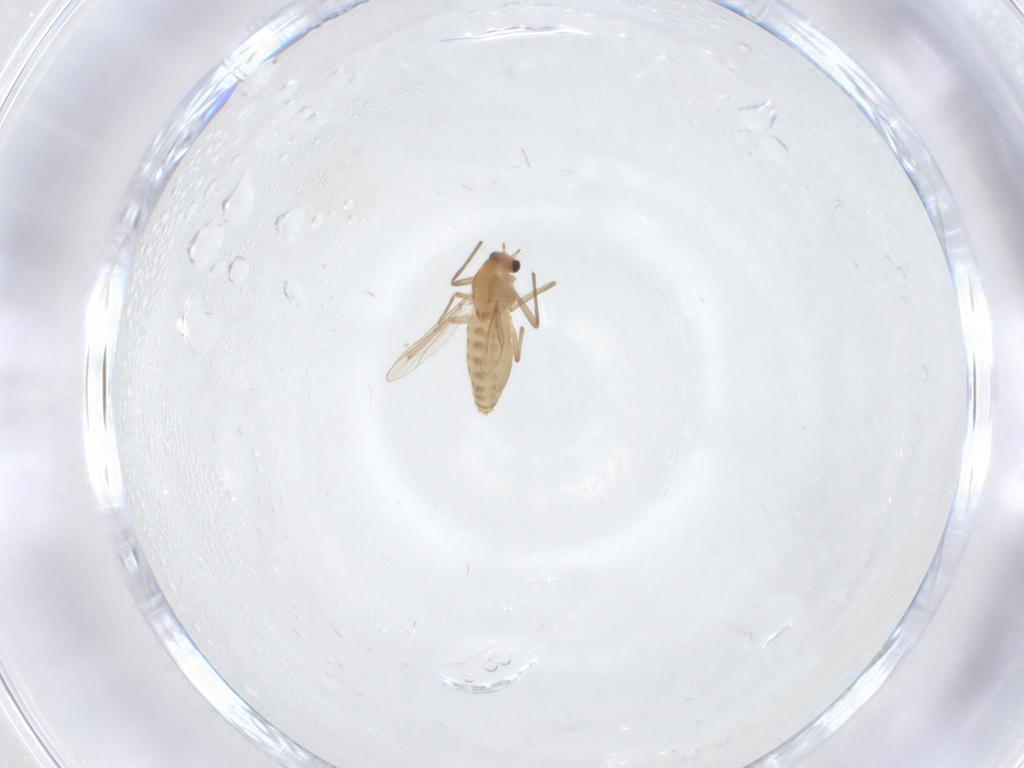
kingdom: Animalia
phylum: Arthropoda
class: Insecta
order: Diptera
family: Chironomidae
